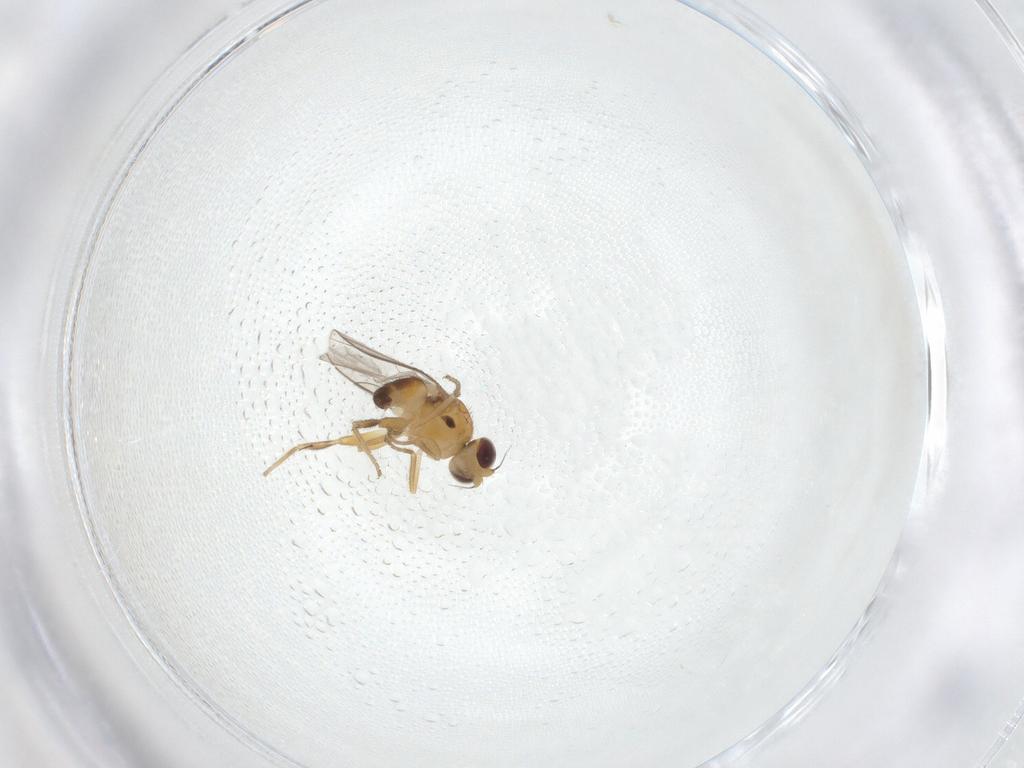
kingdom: Animalia
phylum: Arthropoda
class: Insecta
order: Diptera
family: Chloropidae
